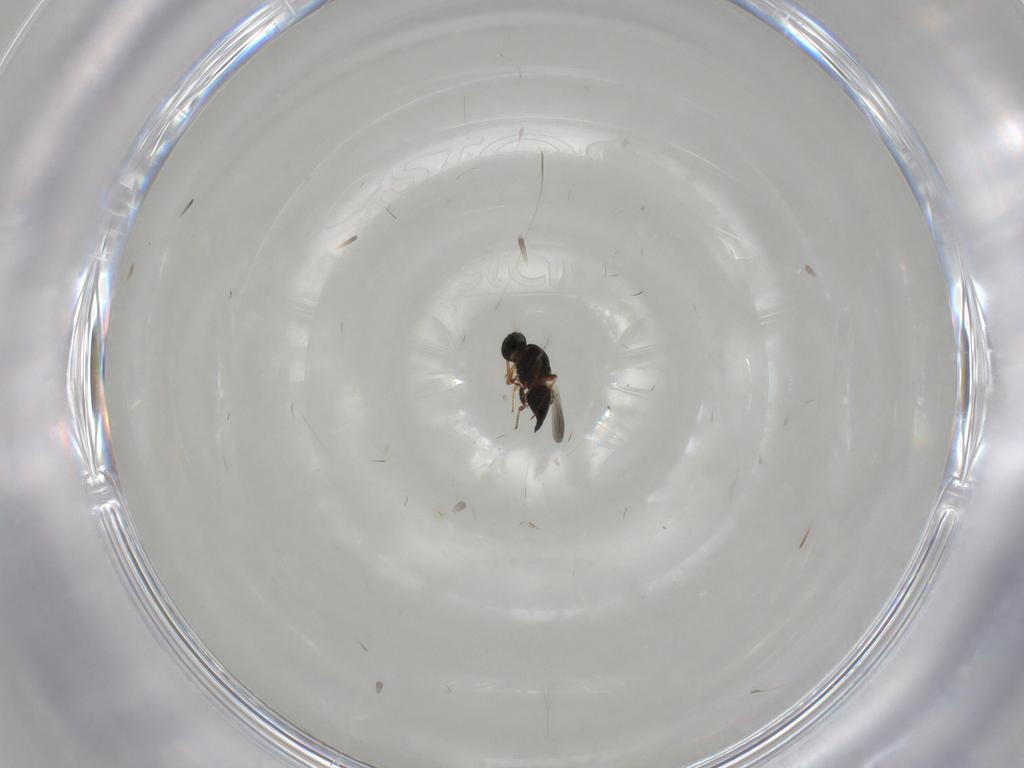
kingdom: Animalia
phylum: Arthropoda
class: Insecta
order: Hymenoptera
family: Platygastridae
